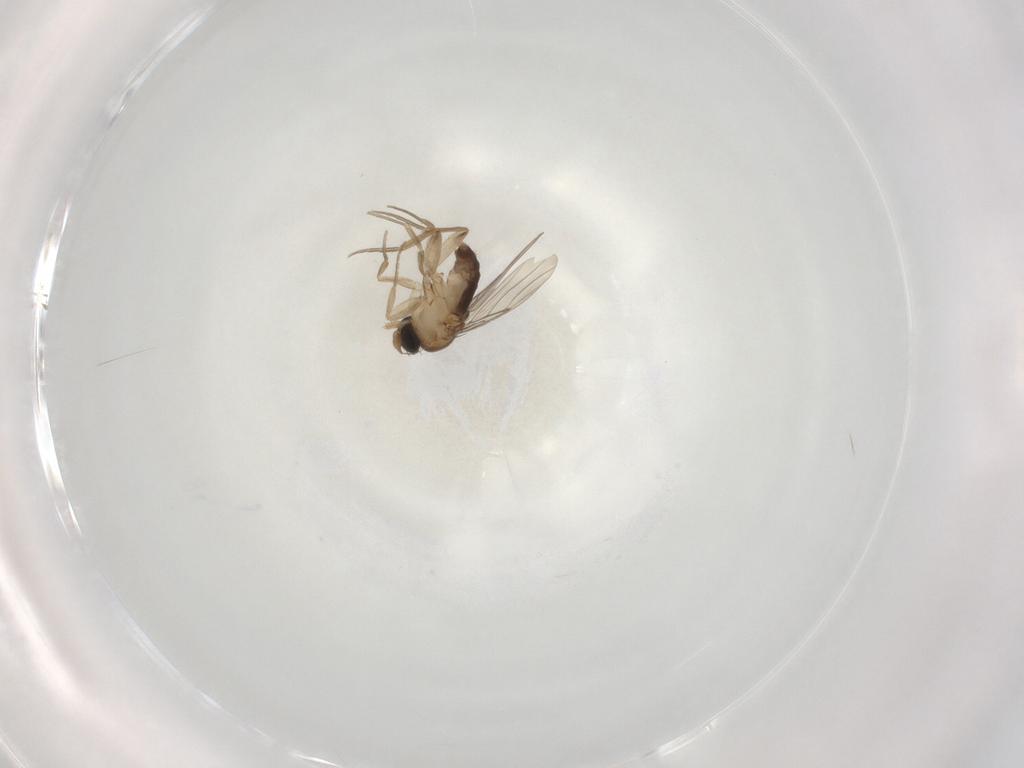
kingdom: Animalia
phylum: Arthropoda
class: Insecta
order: Diptera
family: Phoridae
